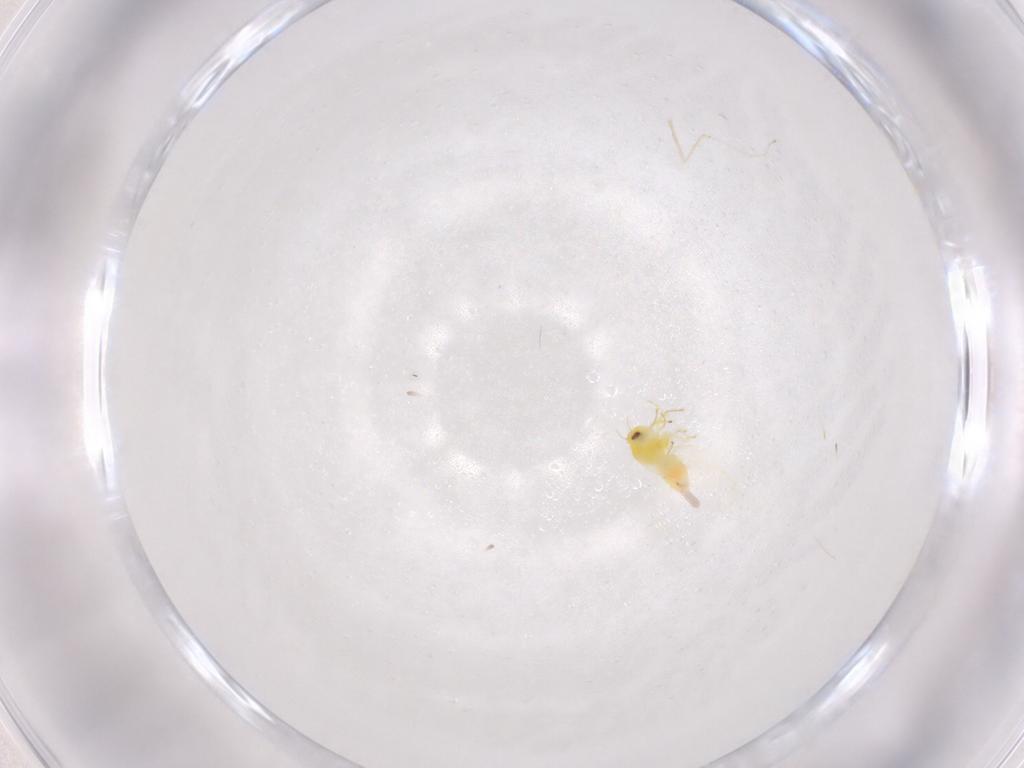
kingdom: Animalia
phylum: Arthropoda
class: Insecta
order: Hemiptera
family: Aleyrodidae
